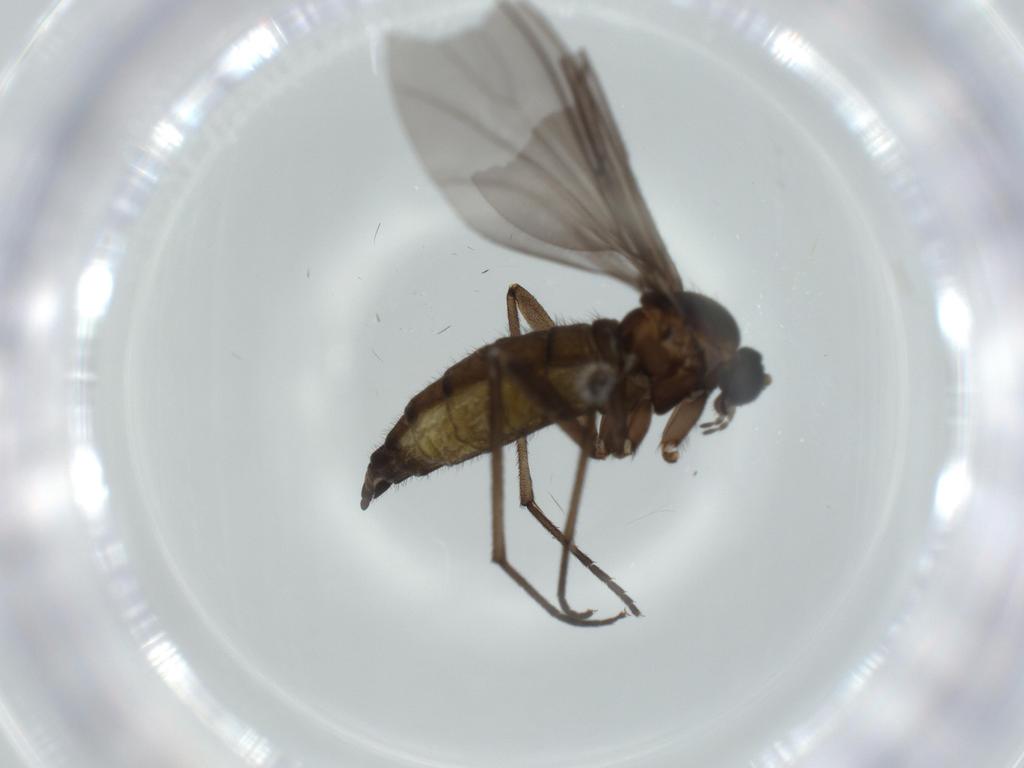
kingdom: Animalia
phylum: Arthropoda
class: Insecta
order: Diptera
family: Sciaridae
